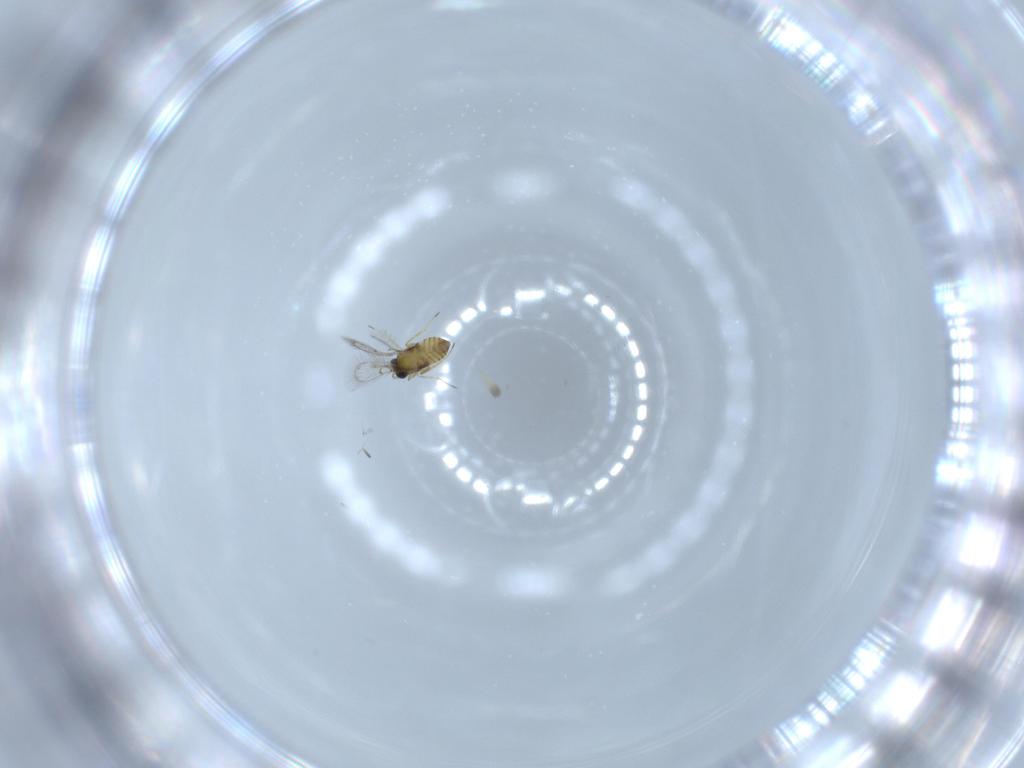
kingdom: Animalia
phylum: Arthropoda
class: Insecta
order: Hymenoptera
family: Trichogrammatidae
